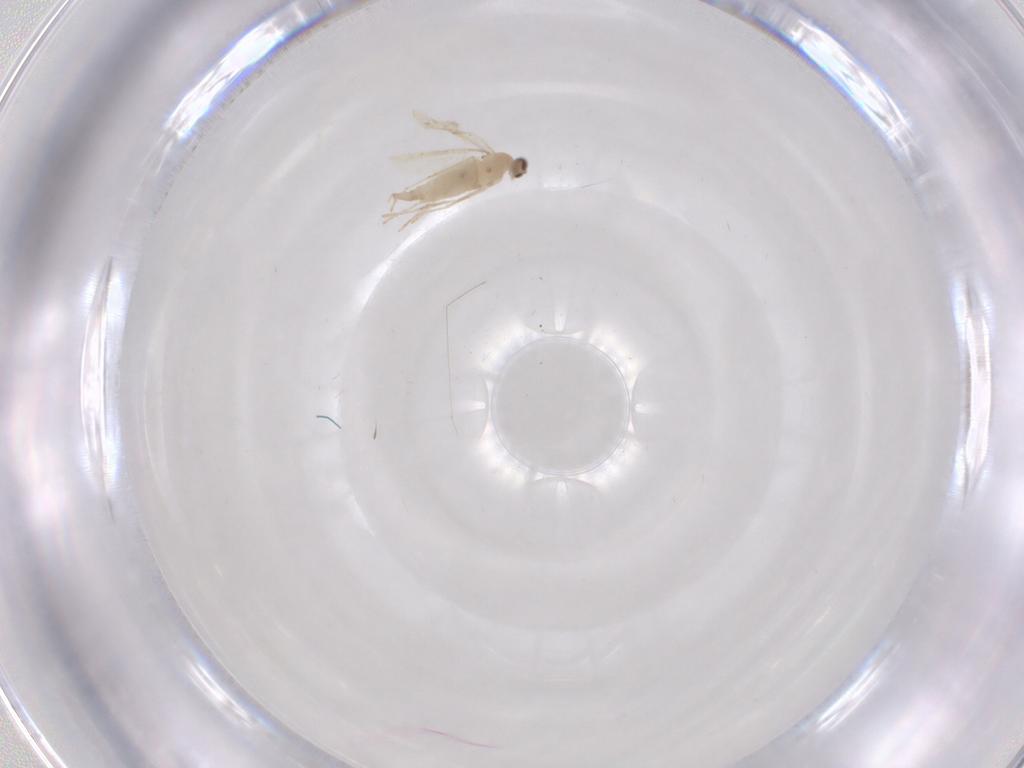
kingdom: Animalia
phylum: Arthropoda
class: Insecta
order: Diptera
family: Cecidomyiidae
